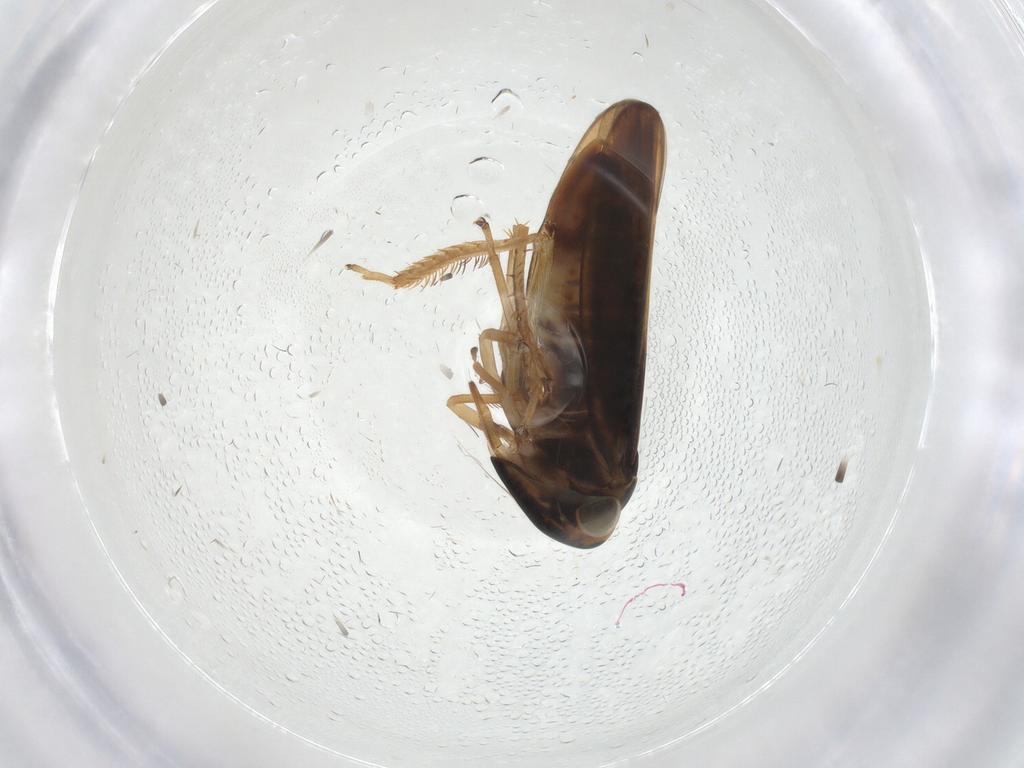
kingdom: Animalia
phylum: Arthropoda
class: Insecta
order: Hemiptera
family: Cicadellidae
